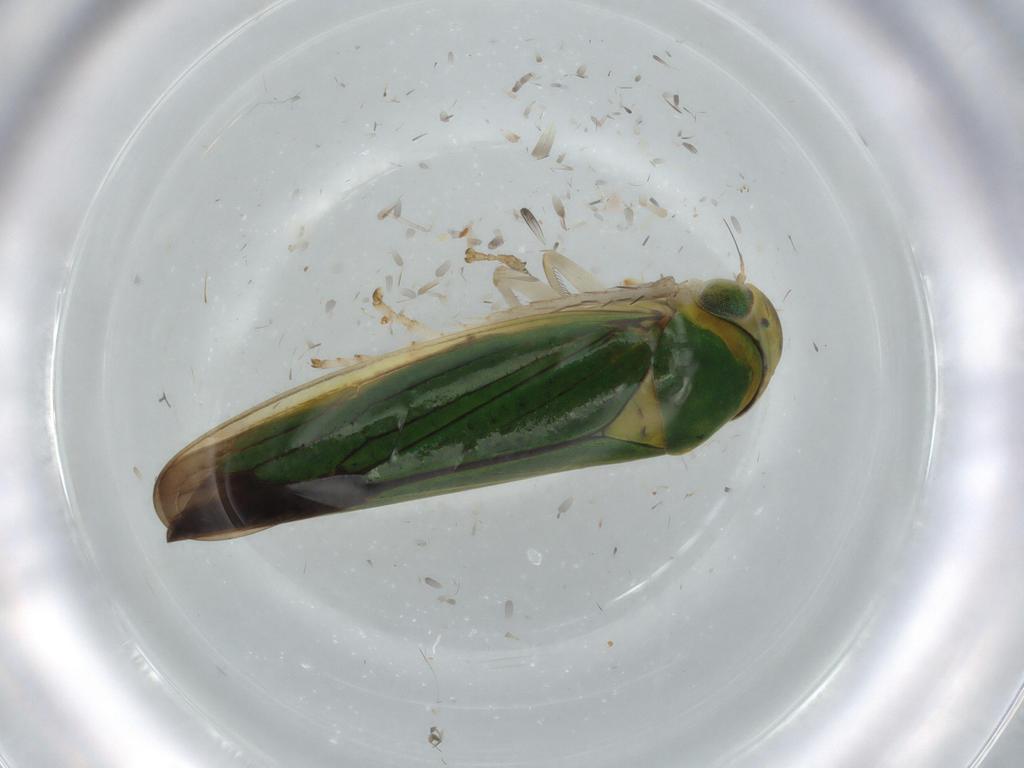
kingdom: Animalia
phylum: Arthropoda
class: Insecta
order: Hemiptera
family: Cicadellidae
